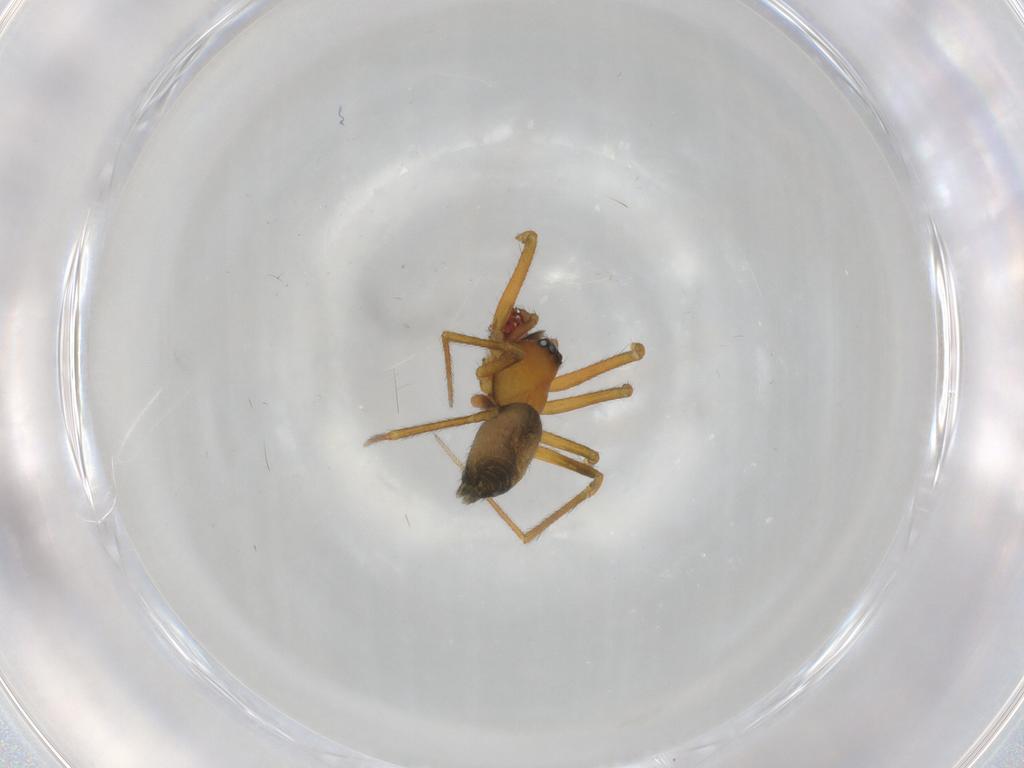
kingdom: Animalia
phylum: Arthropoda
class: Arachnida
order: Araneae
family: Linyphiidae
